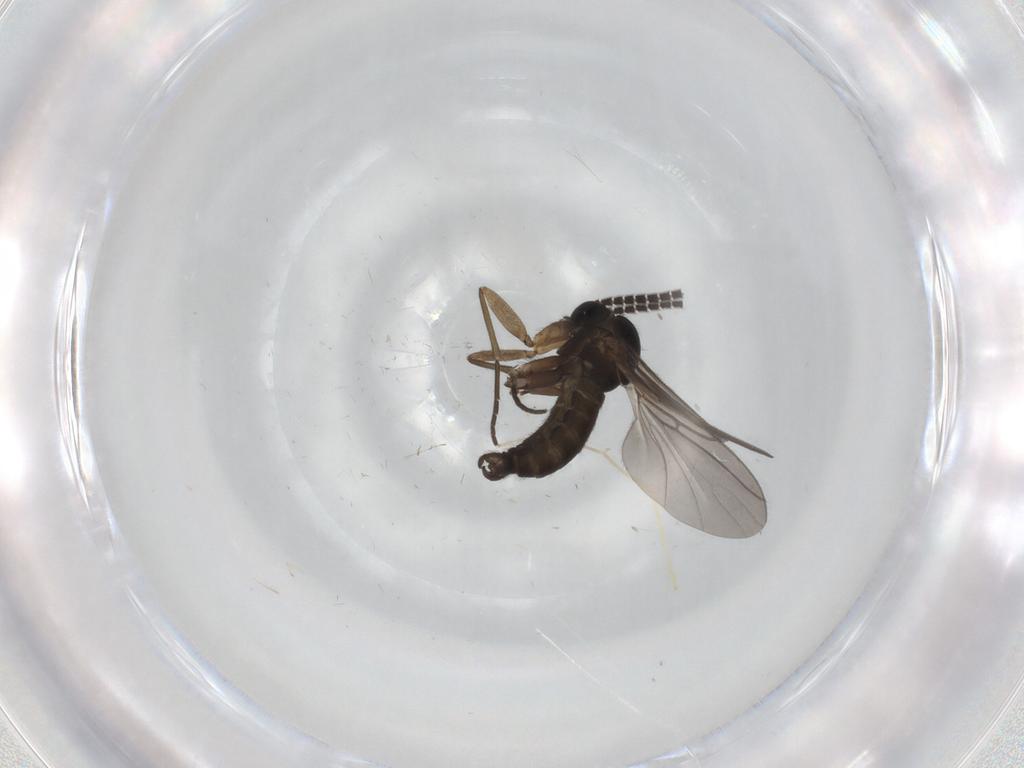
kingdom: Animalia
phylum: Arthropoda
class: Insecta
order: Diptera
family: Sciaridae
